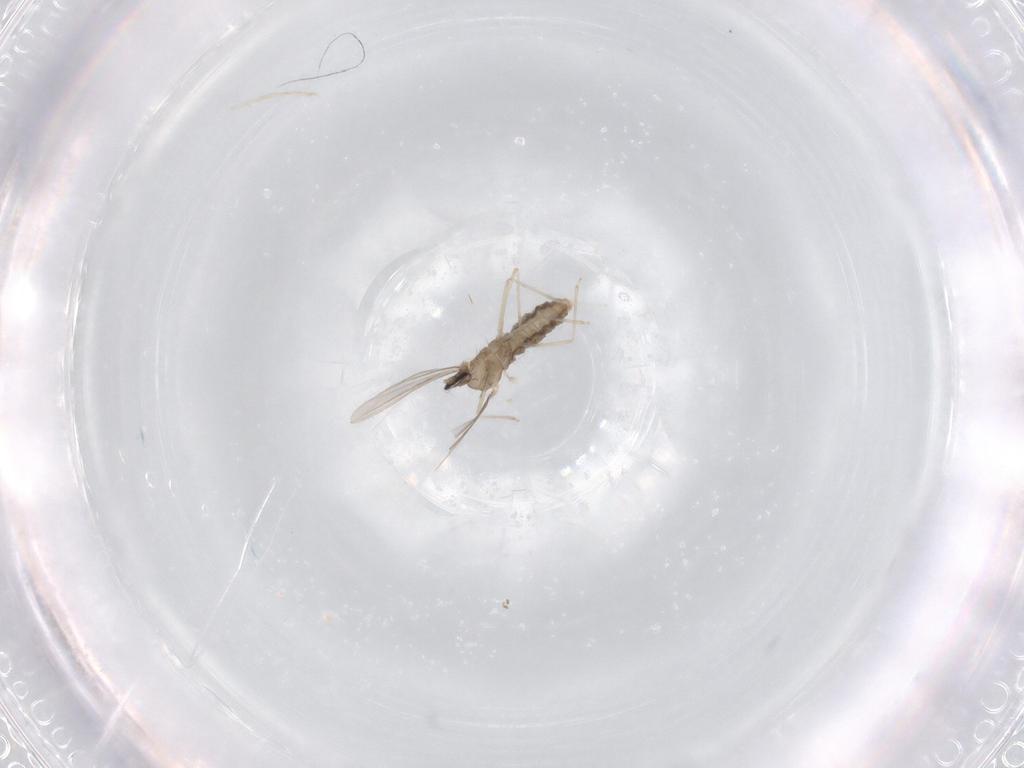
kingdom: Animalia
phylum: Arthropoda
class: Insecta
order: Diptera
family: Cecidomyiidae
